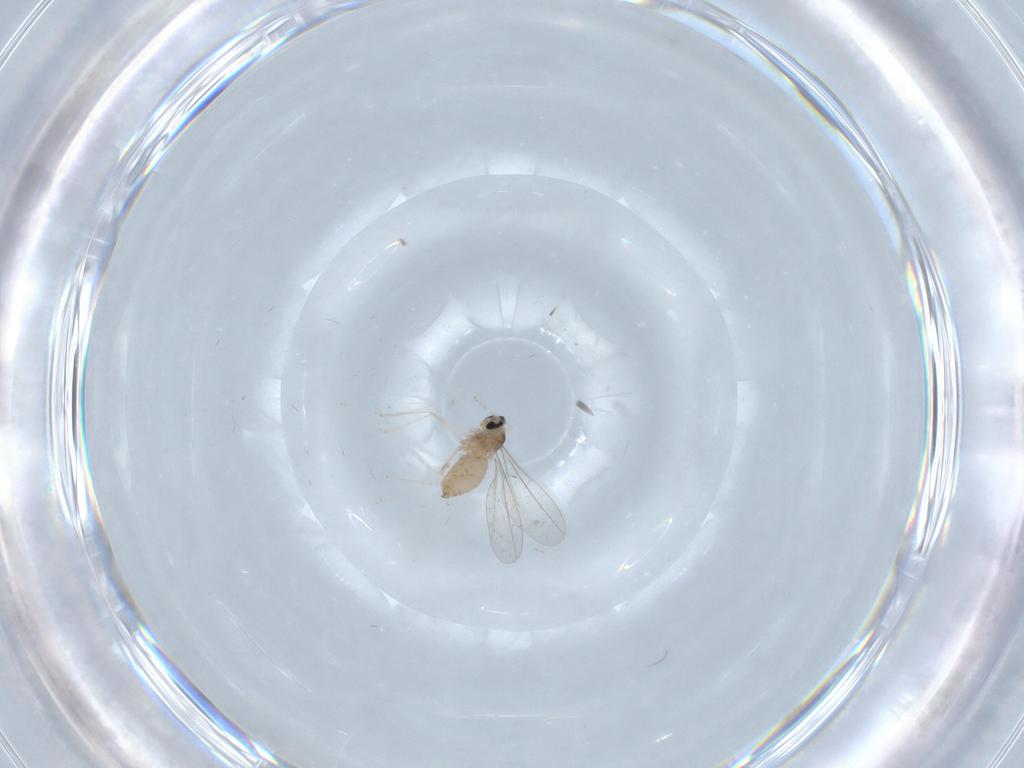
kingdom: Animalia
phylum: Arthropoda
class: Insecta
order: Diptera
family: Cecidomyiidae
